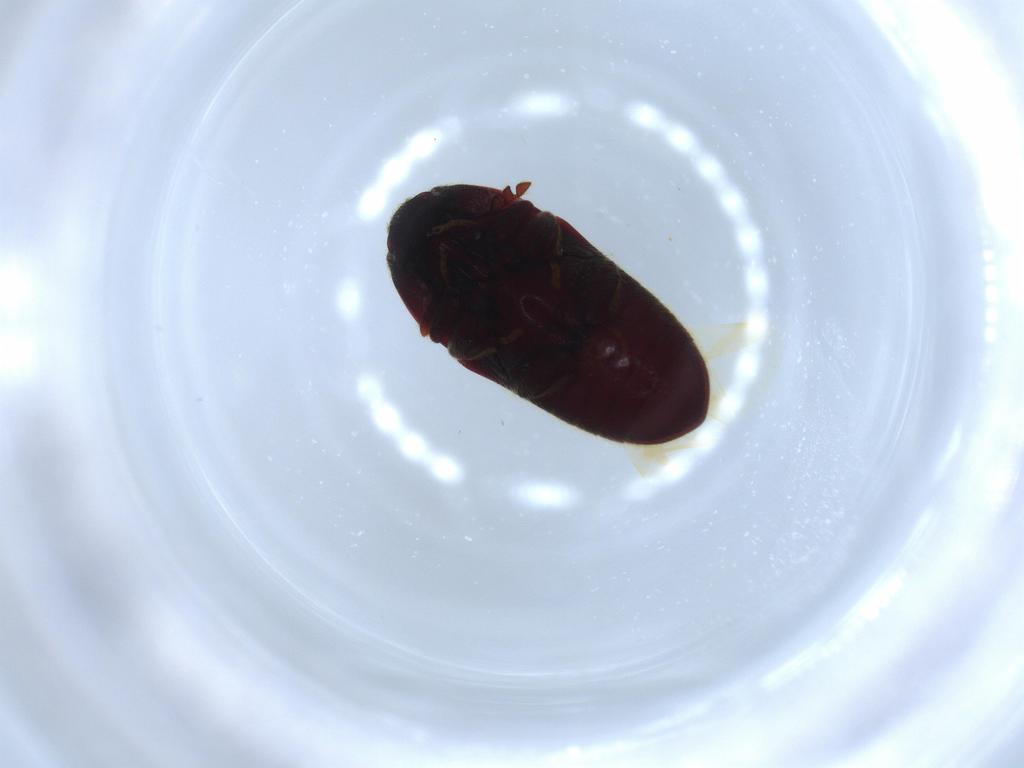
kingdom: Animalia
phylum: Arthropoda
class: Insecta
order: Coleoptera
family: Throscidae
